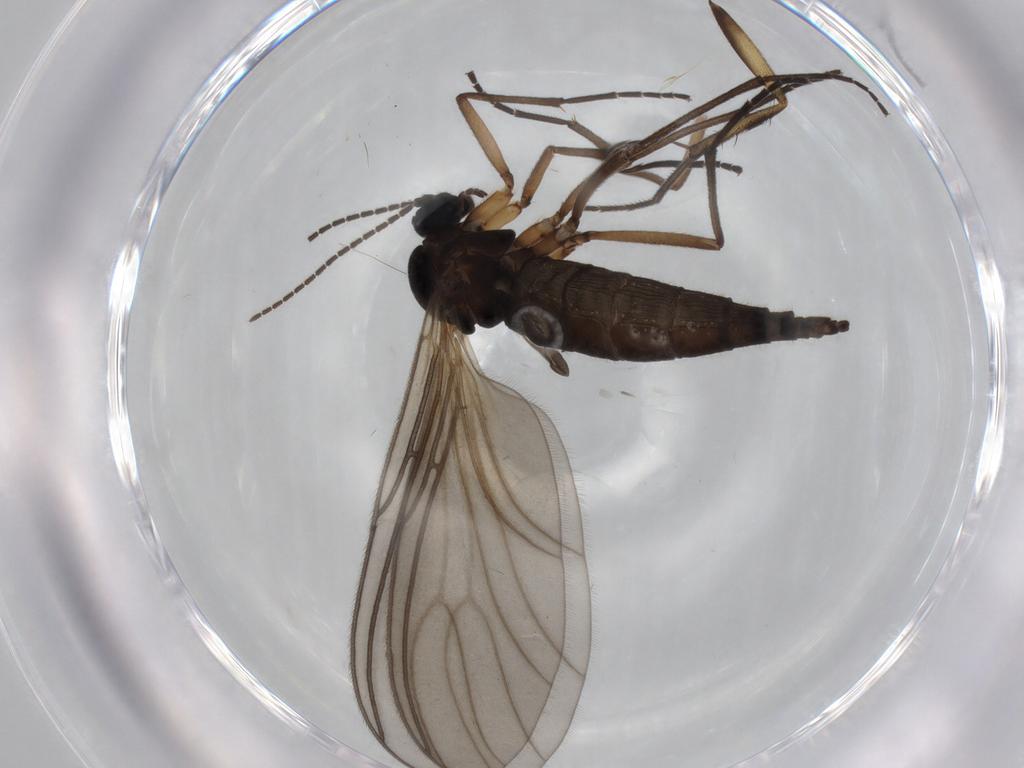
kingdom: Animalia
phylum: Arthropoda
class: Insecta
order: Diptera
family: Sciaridae
